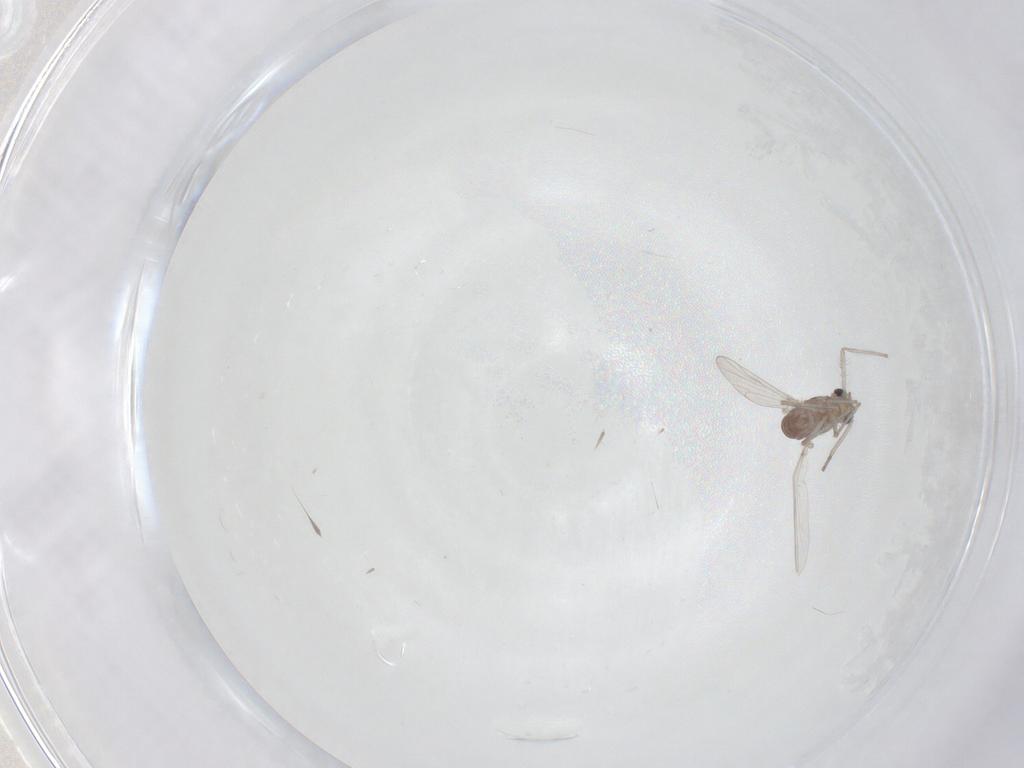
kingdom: Animalia
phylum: Arthropoda
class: Insecta
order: Diptera
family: Chironomidae
